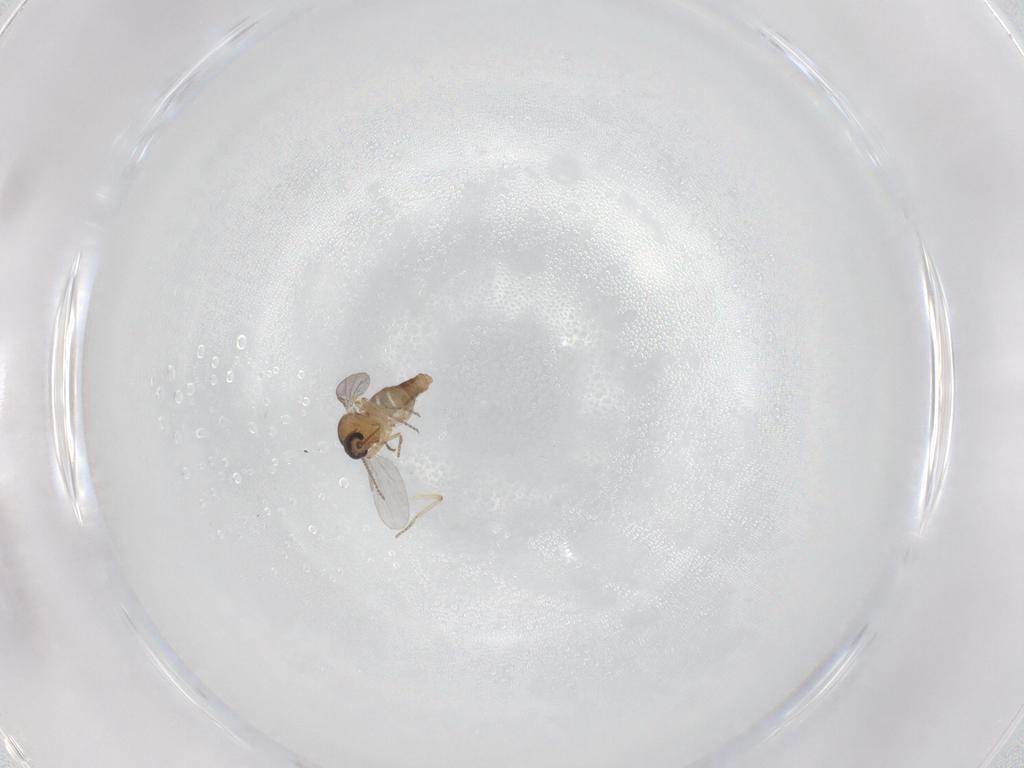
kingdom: Animalia
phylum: Arthropoda
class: Insecta
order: Diptera
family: Ceratopogonidae
